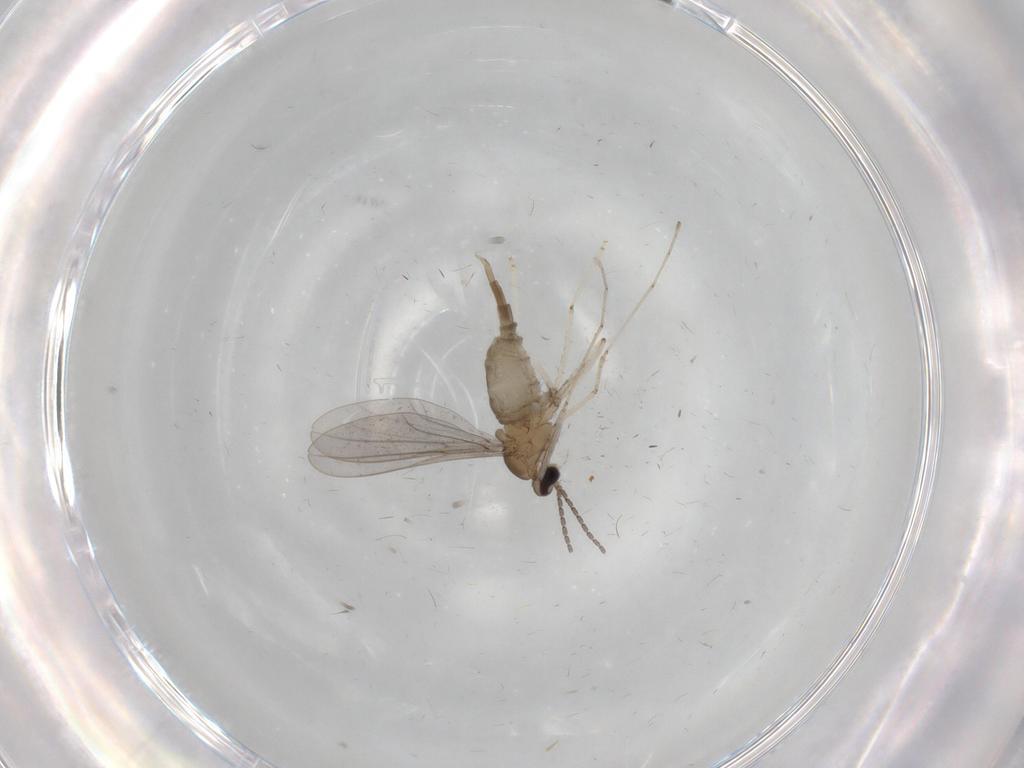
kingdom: Animalia
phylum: Arthropoda
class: Insecta
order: Diptera
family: Cecidomyiidae
